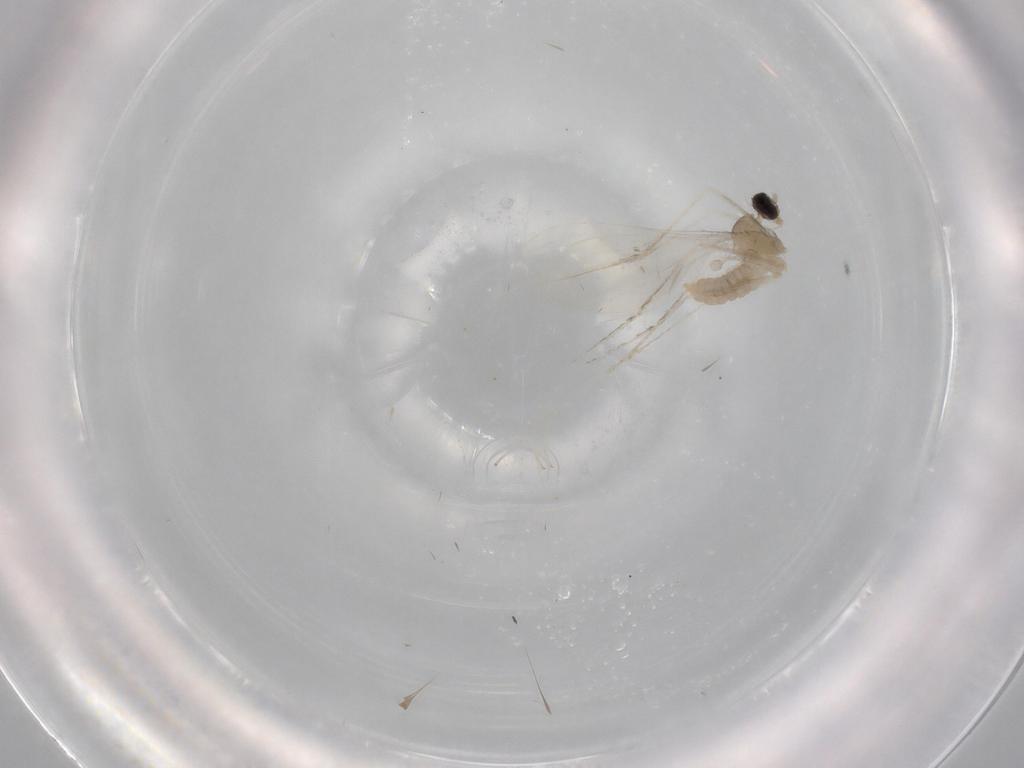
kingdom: Animalia
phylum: Arthropoda
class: Insecta
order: Diptera
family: Cecidomyiidae
